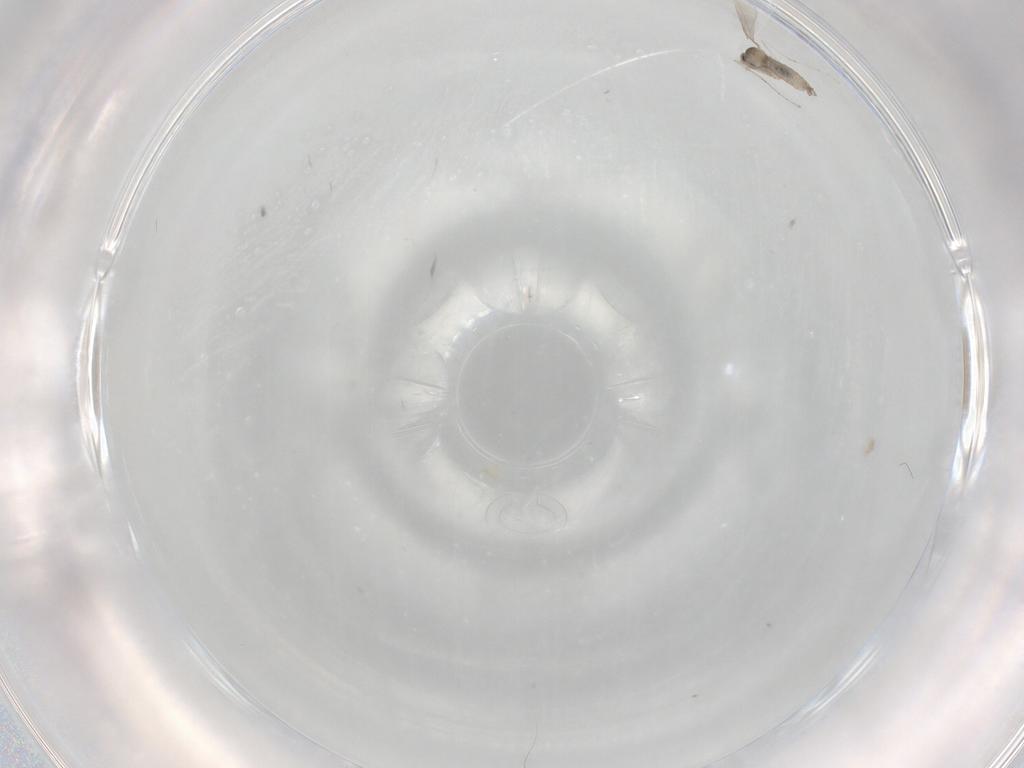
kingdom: Animalia
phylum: Arthropoda
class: Insecta
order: Diptera
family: Cecidomyiidae
